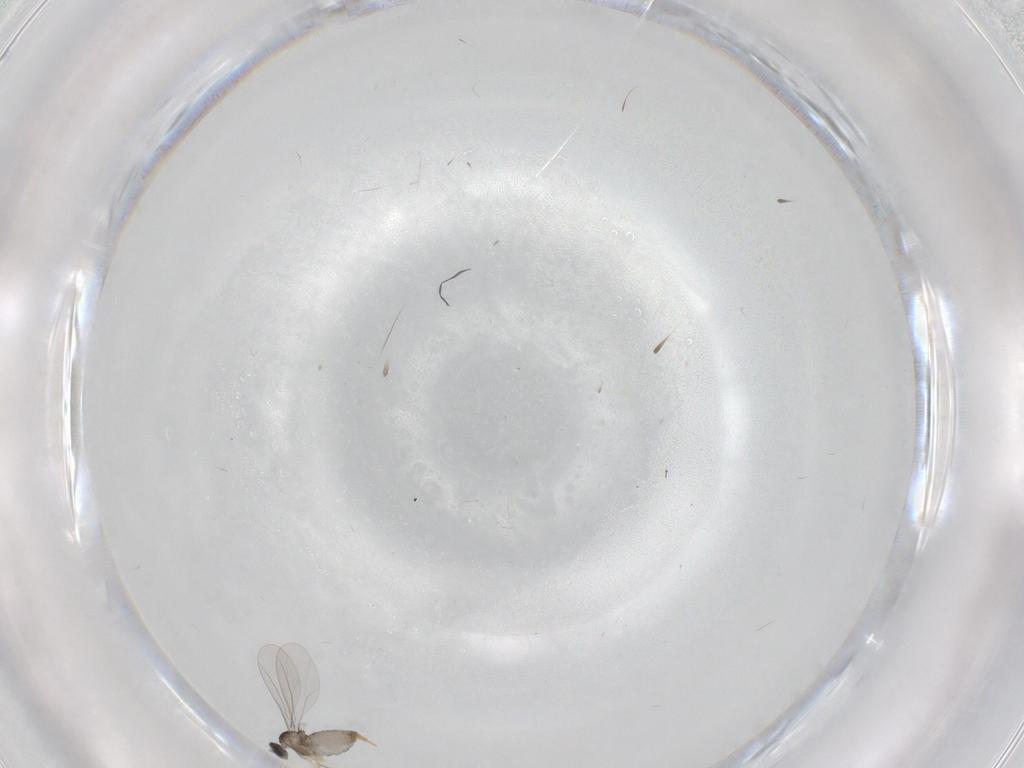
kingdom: Animalia
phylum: Arthropoda
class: Insecta
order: Diptera
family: Cecidomyiidae
